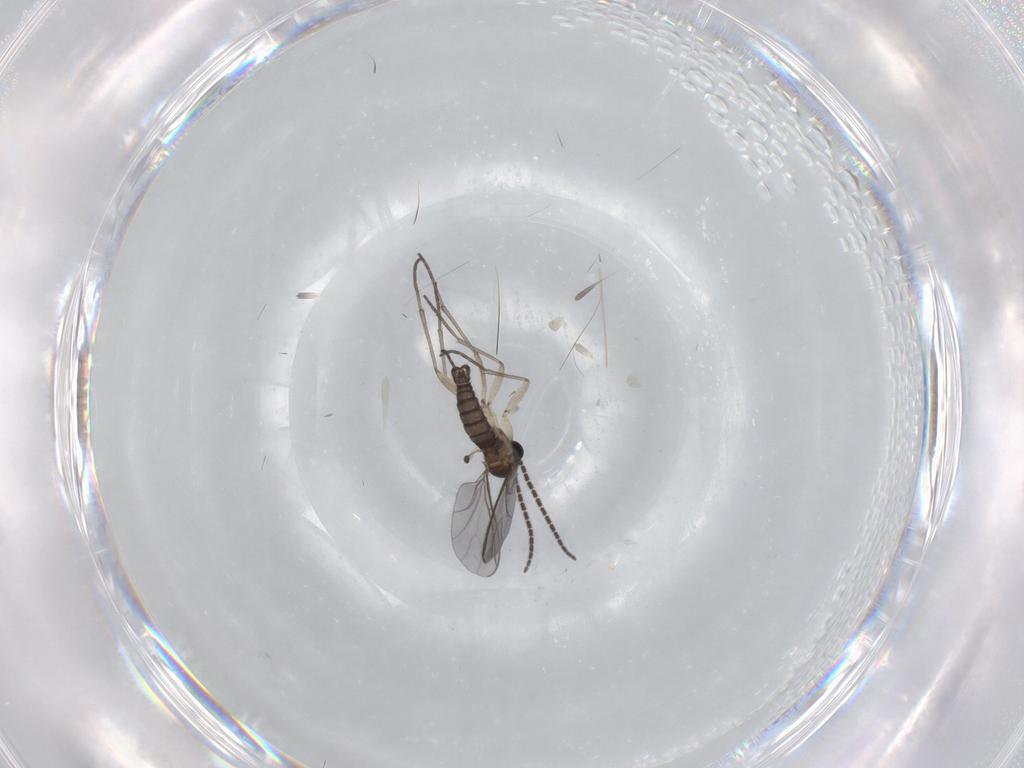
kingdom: Animalia
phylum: Arthropoda
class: Insecta
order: Diptera
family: Sciaridae
